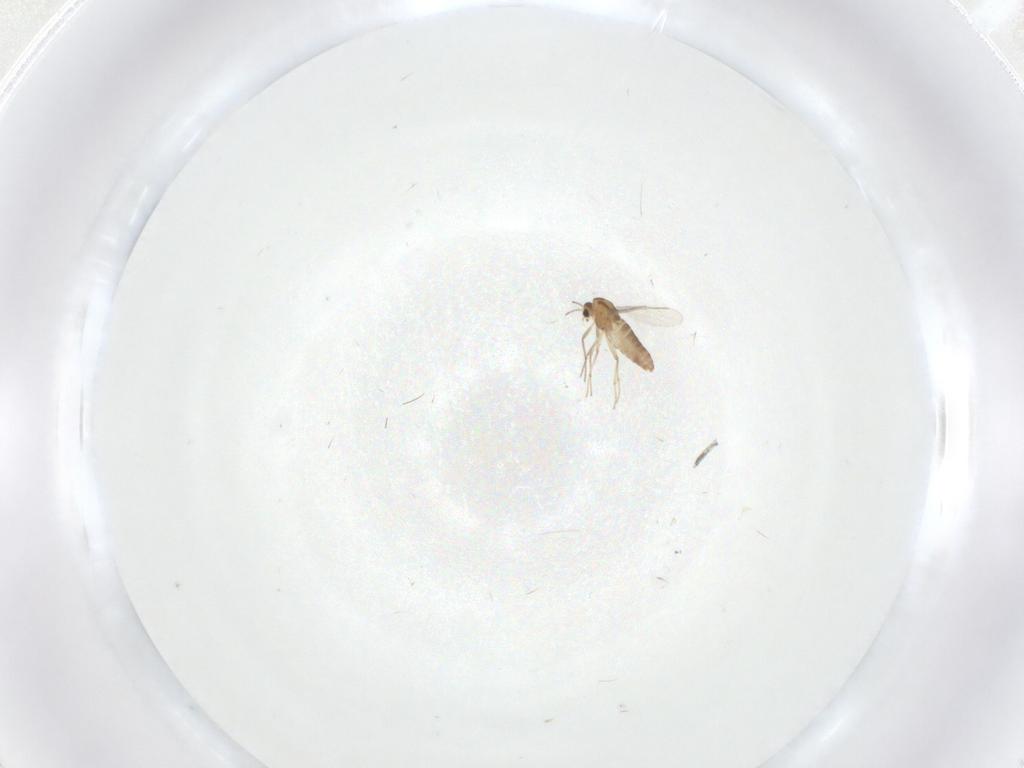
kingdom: Animalia
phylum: Arthropoda
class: Insecta
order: Diptera
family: Chironomidae
